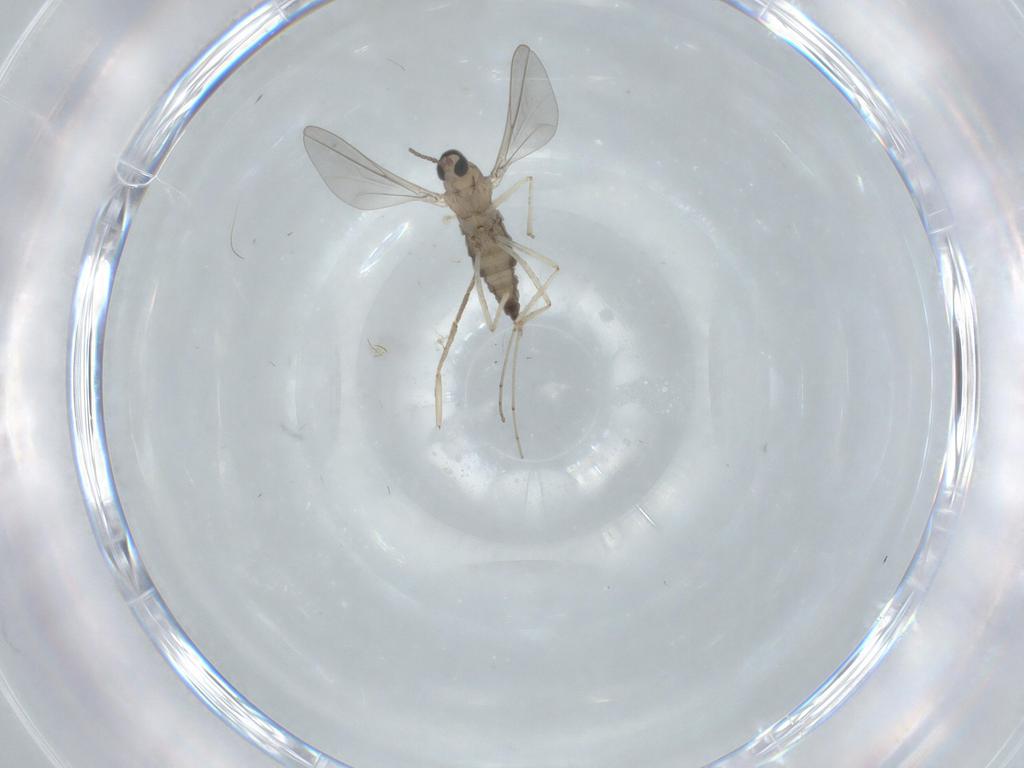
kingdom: Animalia
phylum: Arthropoda
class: Insecta
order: Diptera
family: Cecidomyiidae
